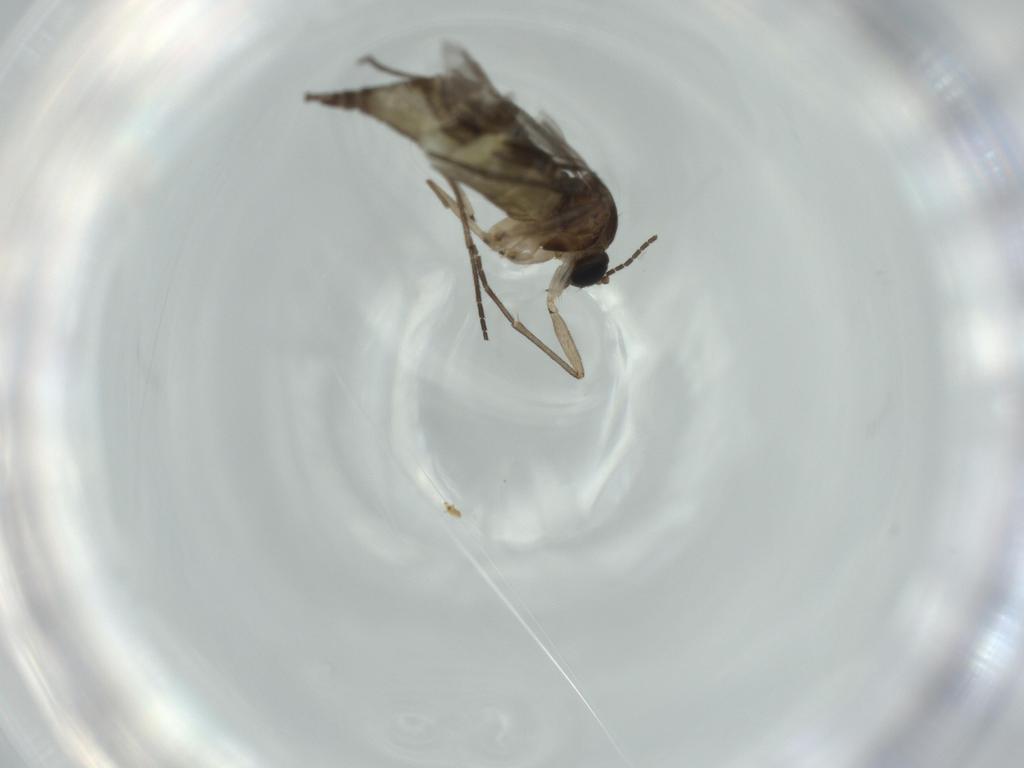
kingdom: Animalia
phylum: Arthropoda
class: Insecta
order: Diptera
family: Sciaridae
